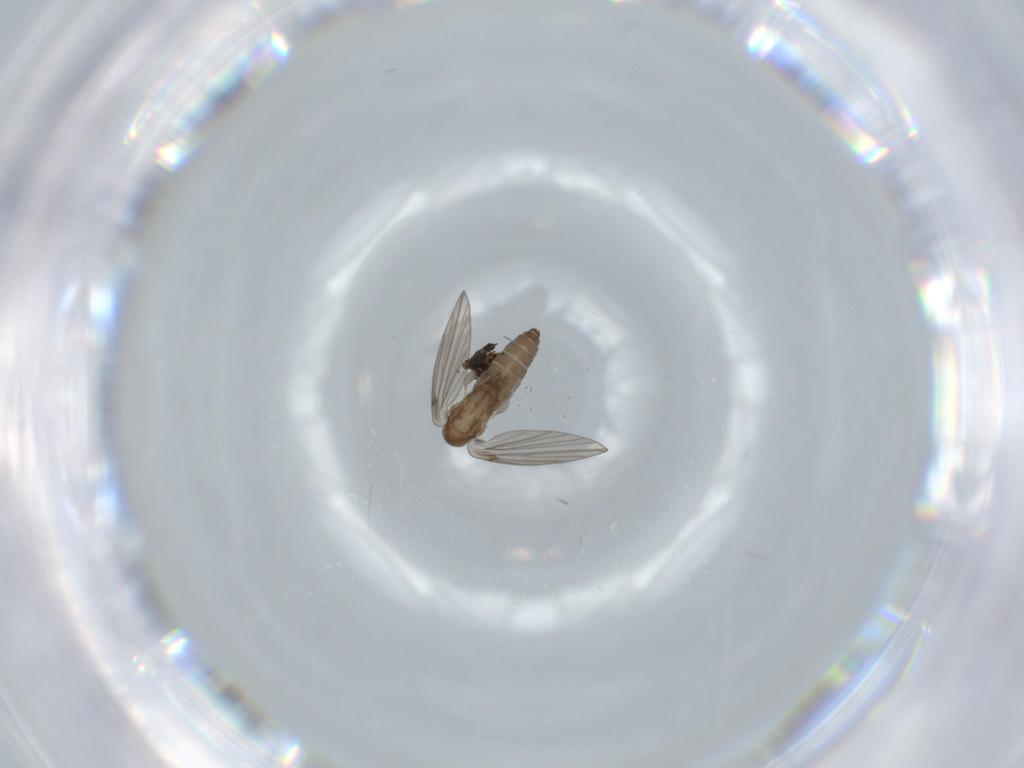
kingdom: Animalia
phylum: Arthropoda
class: Insecta
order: Diptera
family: Psychodidae
